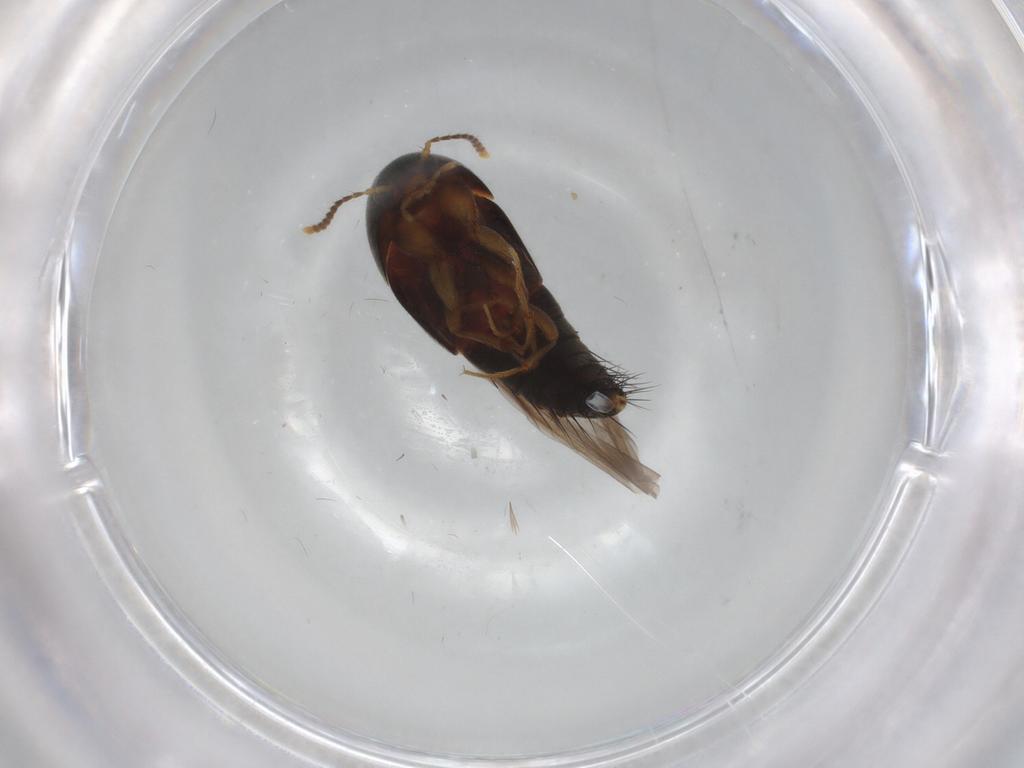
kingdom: Animalia
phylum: Arthropoda
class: Insecta
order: Coleoptera
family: Staphylinidae
